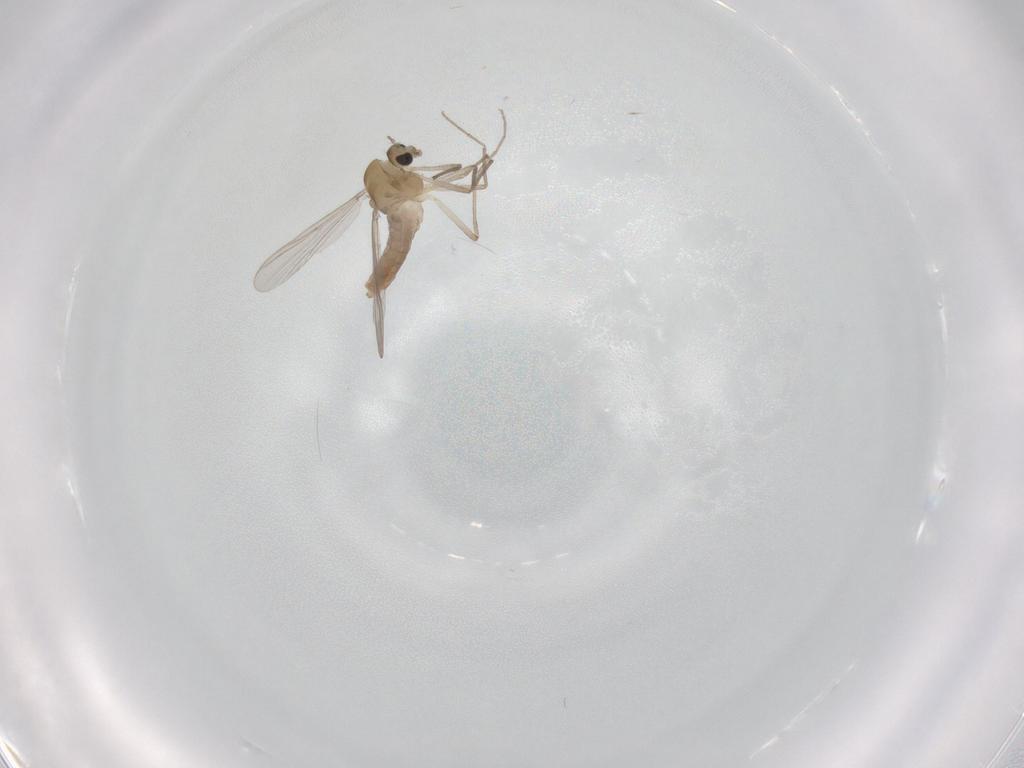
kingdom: Animalia
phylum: Arthropoda
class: Insecta
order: Diptera
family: Chironomidae
